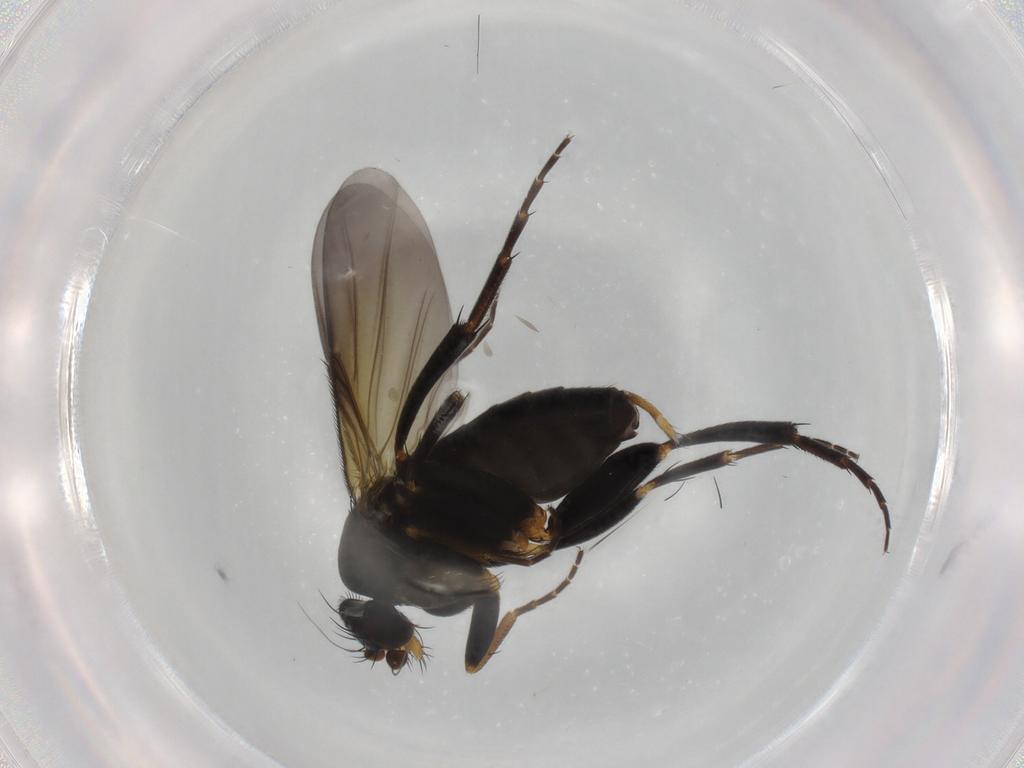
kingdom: Animalia
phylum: Arthropoda
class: Insecta
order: Diptera
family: Phoridae
